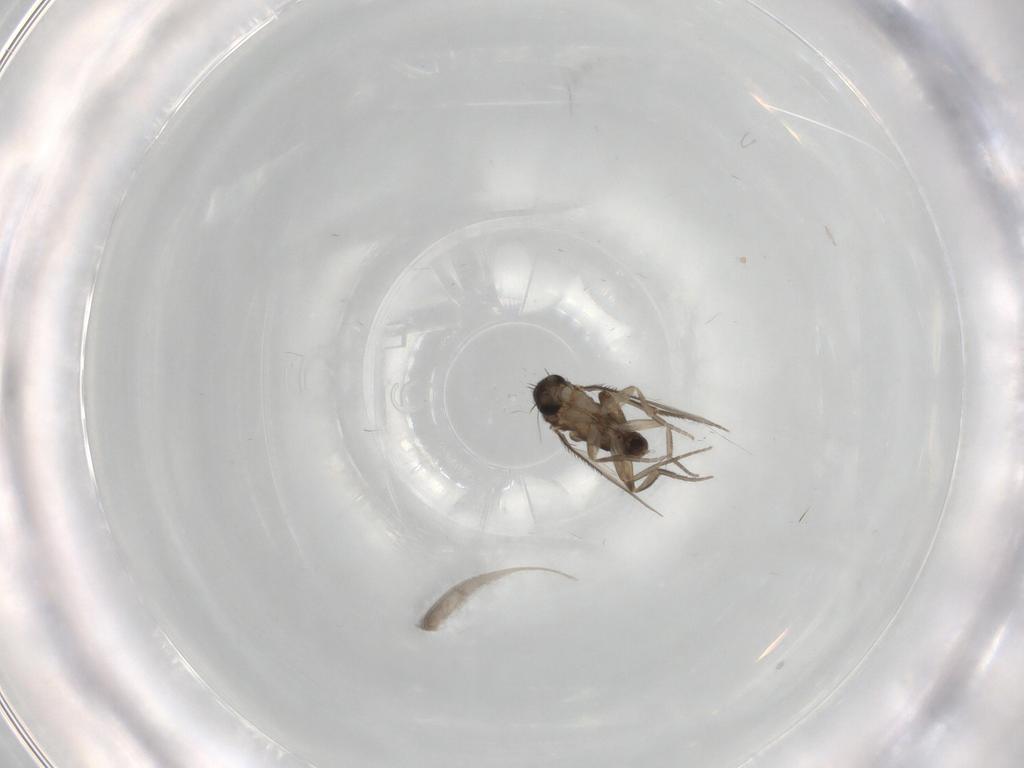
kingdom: Animalia
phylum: Arthropoda
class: Insecta
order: Diptera
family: Phoridae
